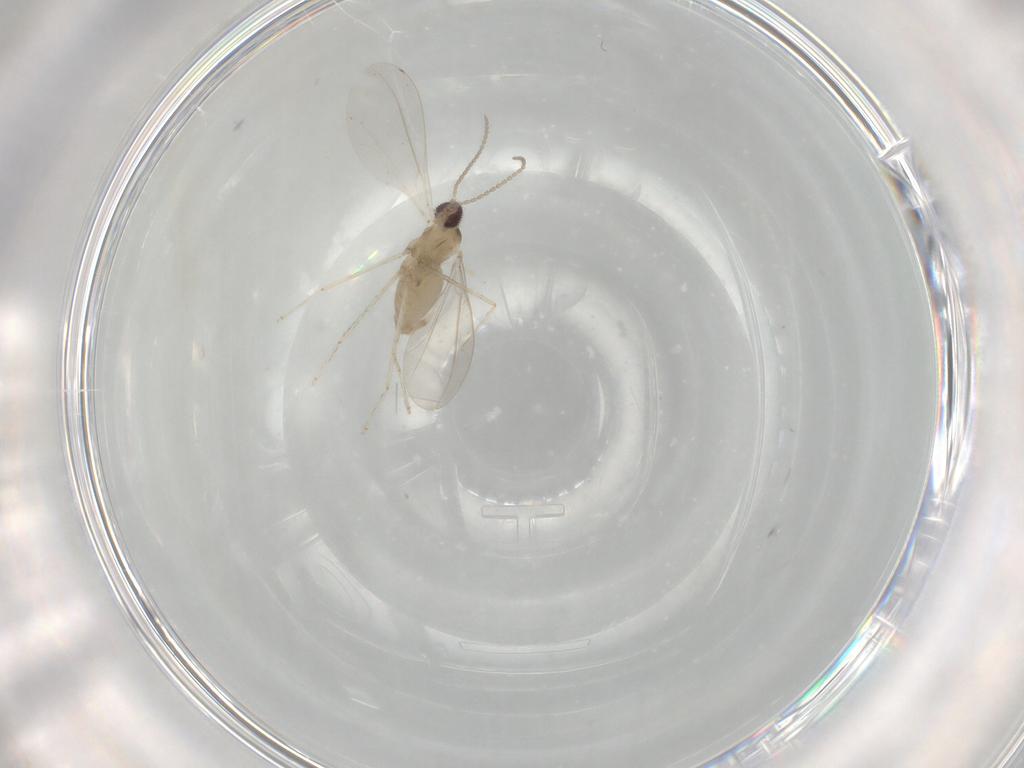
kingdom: Animalia
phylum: Arthropoda
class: Insecta
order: Diptera
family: Cecidomyiidae
